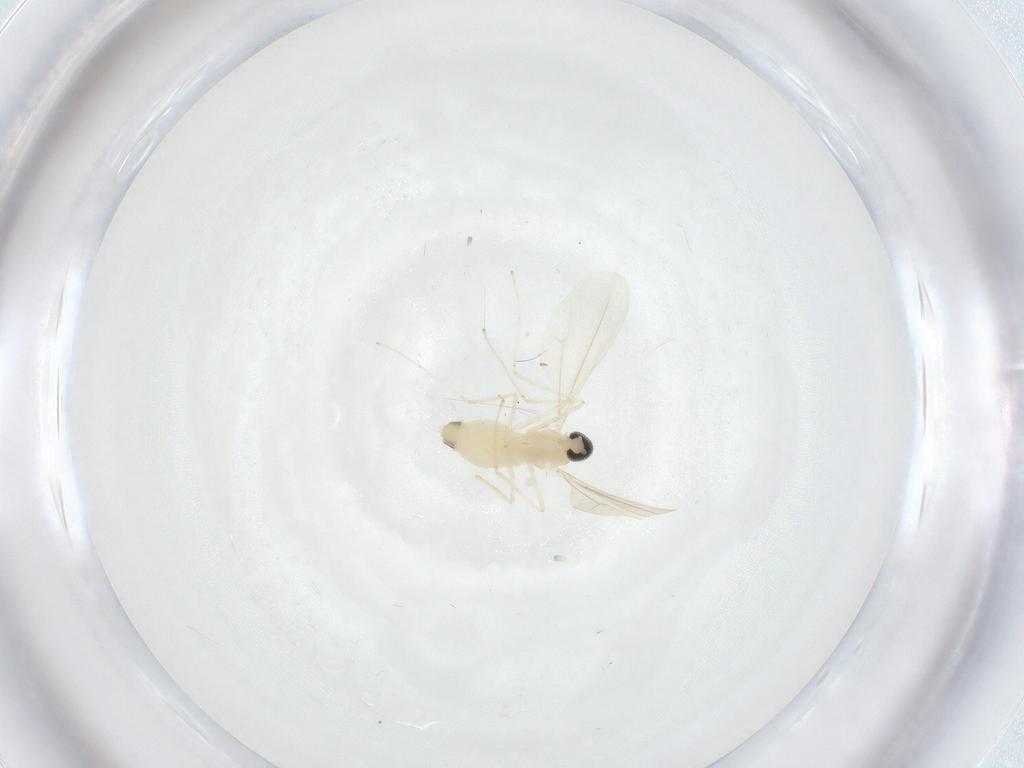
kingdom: Animalia
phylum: Arthropoda
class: Insecta
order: Diptera
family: Cecidomyiidae
